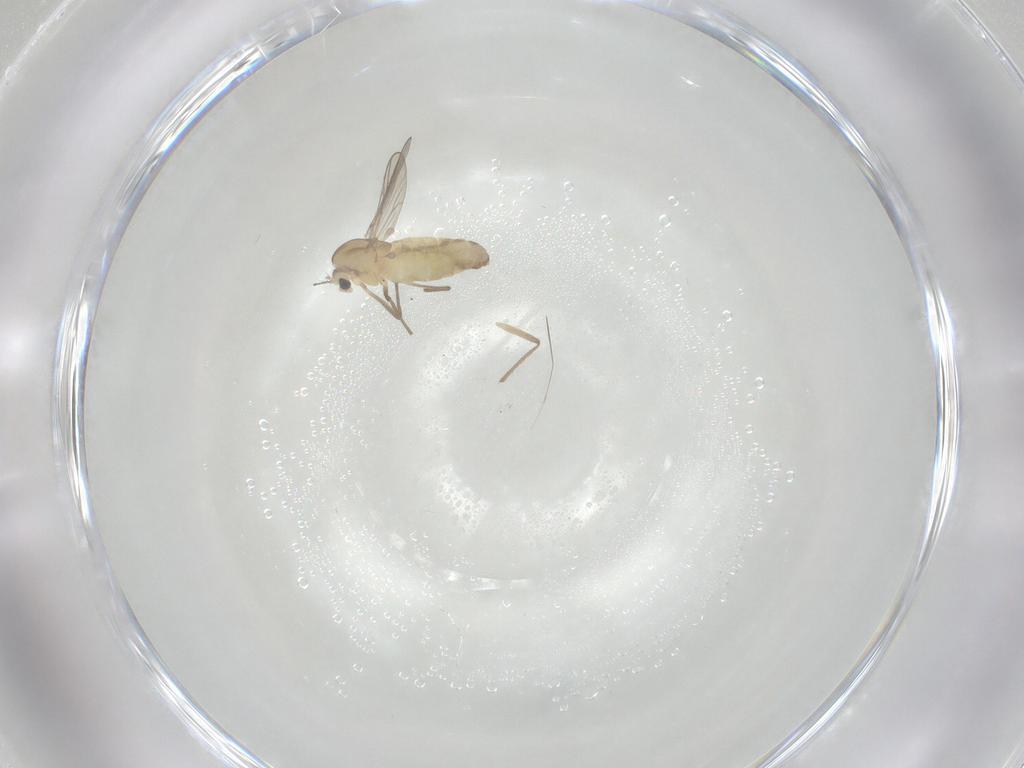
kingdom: Animalia
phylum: Arthropoda
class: Insecta
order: Diptera
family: Chironomidae
